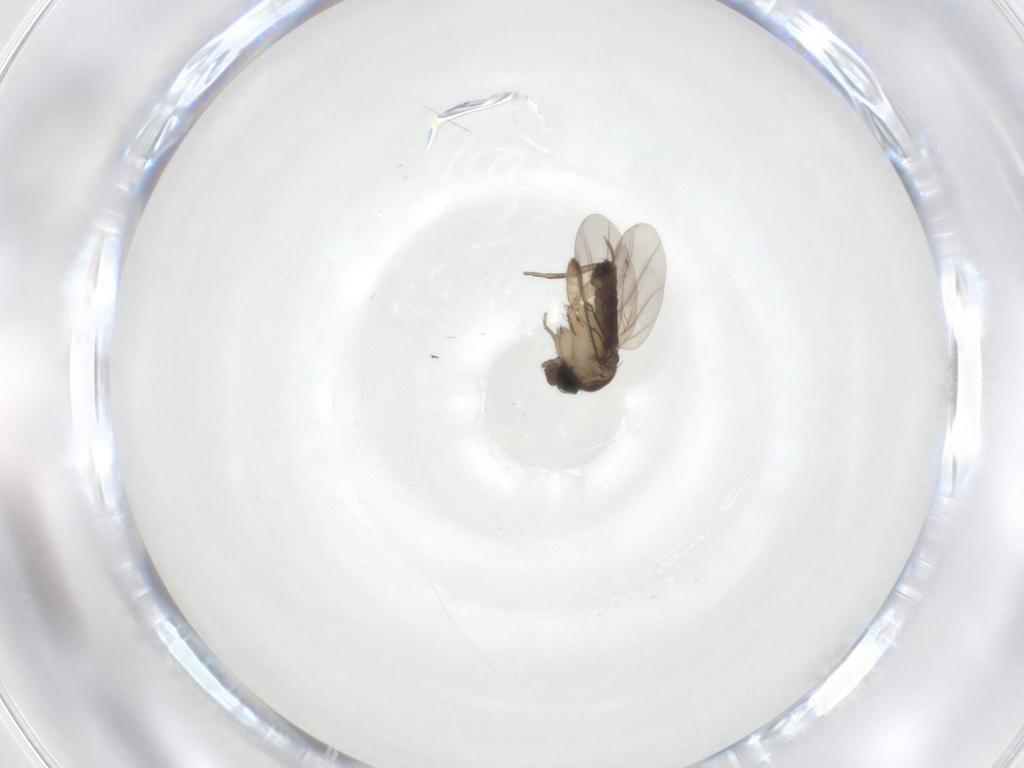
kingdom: Animalia
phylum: Arthropoda
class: Insecta
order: Diptera
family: Phoridae
